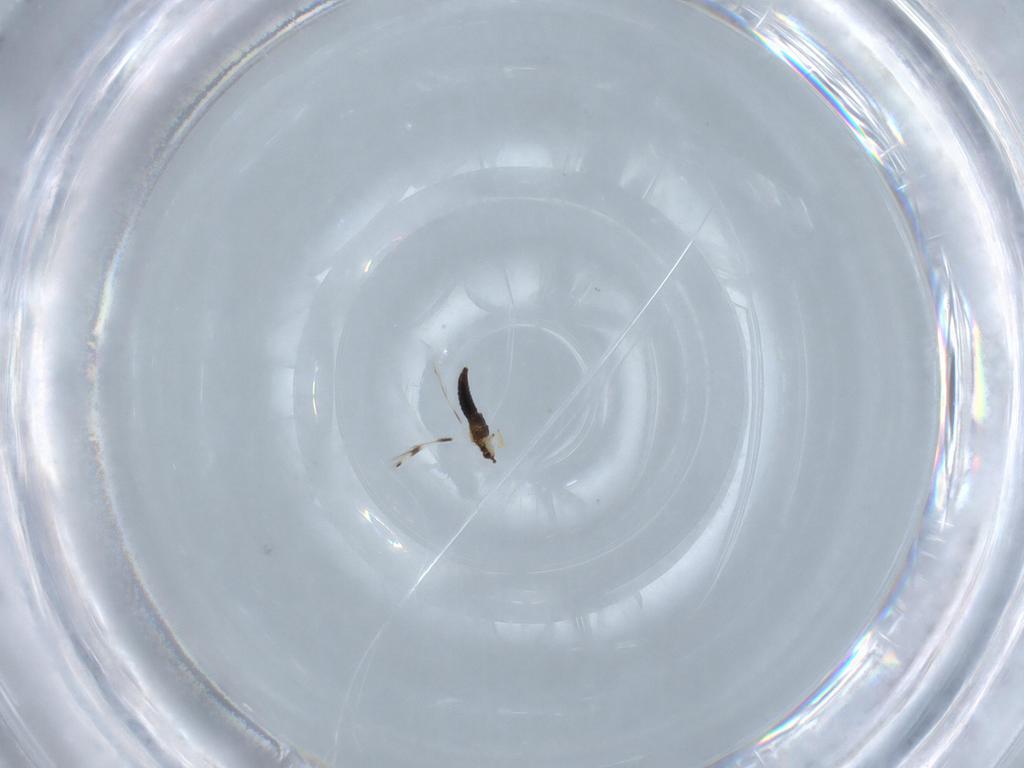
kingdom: Animalia
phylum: Arthropoda
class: Insecta
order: Thysanoptera
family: Thripidae
